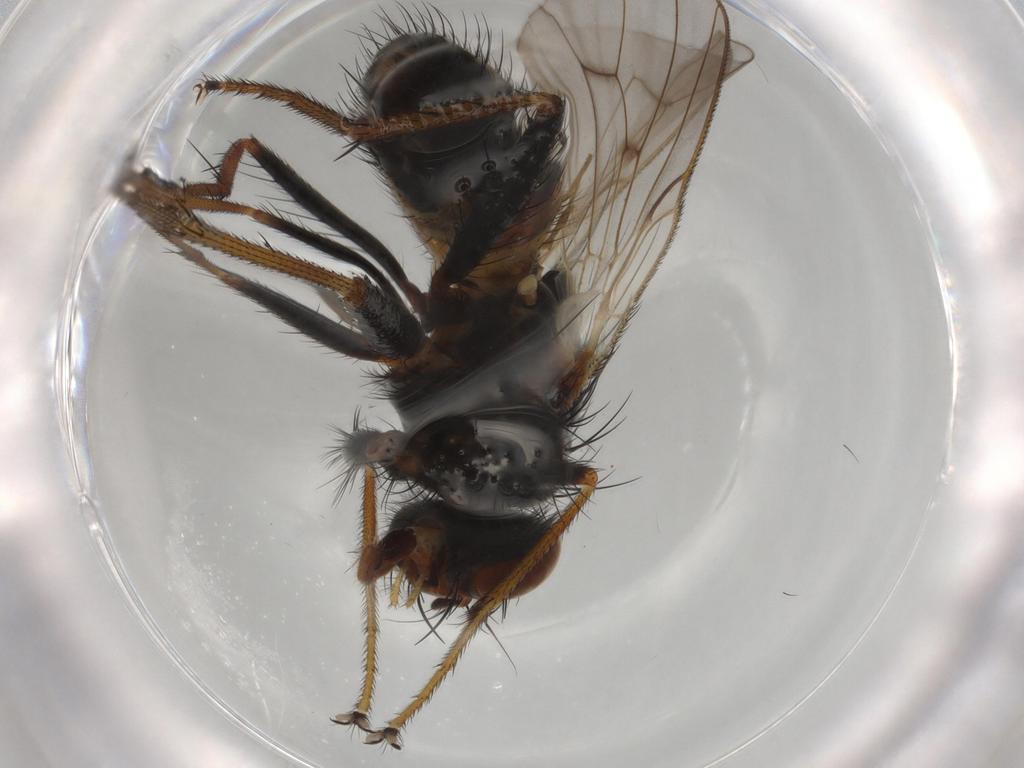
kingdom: Animalia
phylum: Arthropoda
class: Insecta
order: Diptera
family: Muscidae
